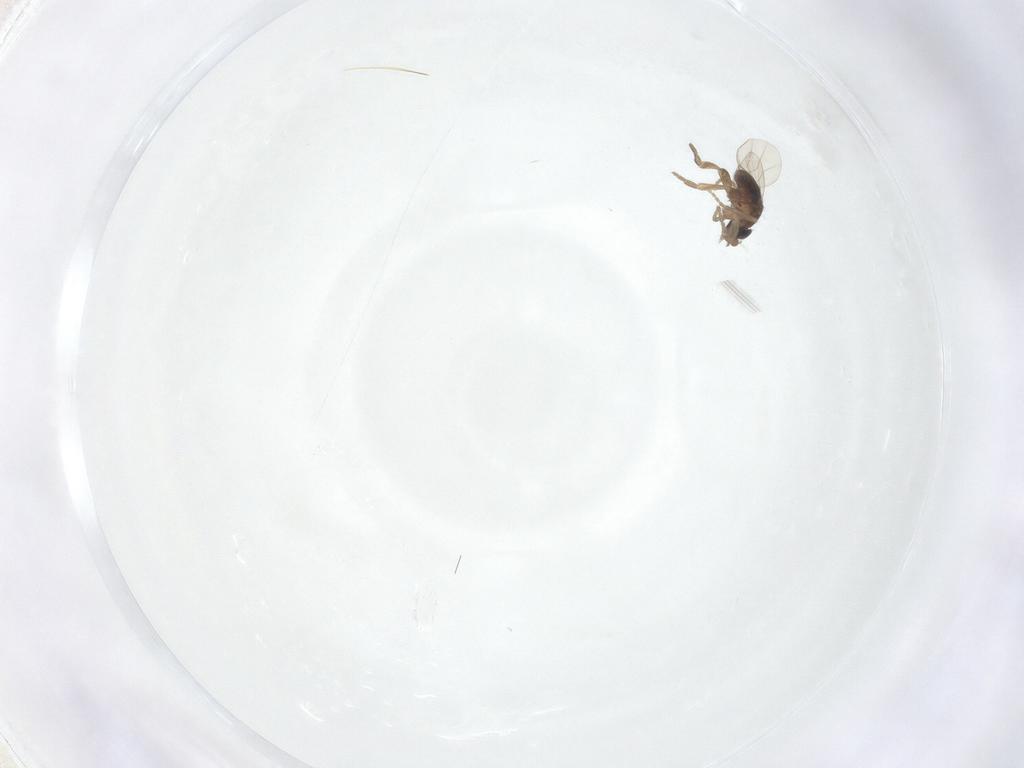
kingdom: Animalia
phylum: Arthropoda
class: Insecta
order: Diptera
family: Phoridae
